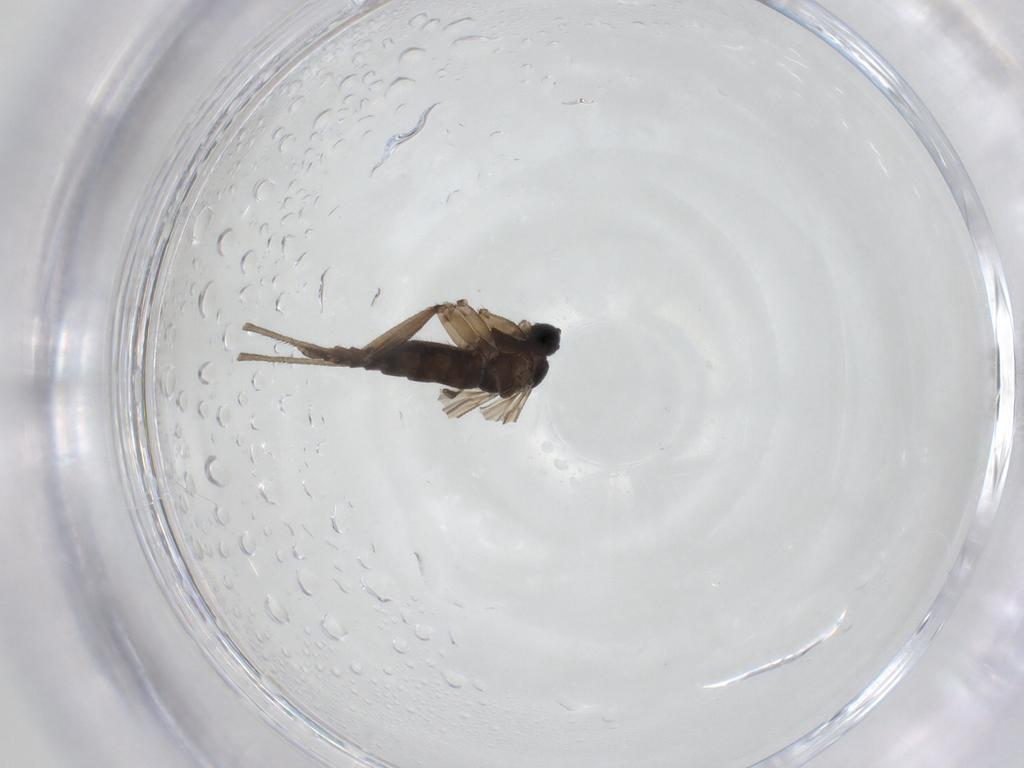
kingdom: Animalia
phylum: Arthropoda
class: Insecta
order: Diptera
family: Sciaridae
